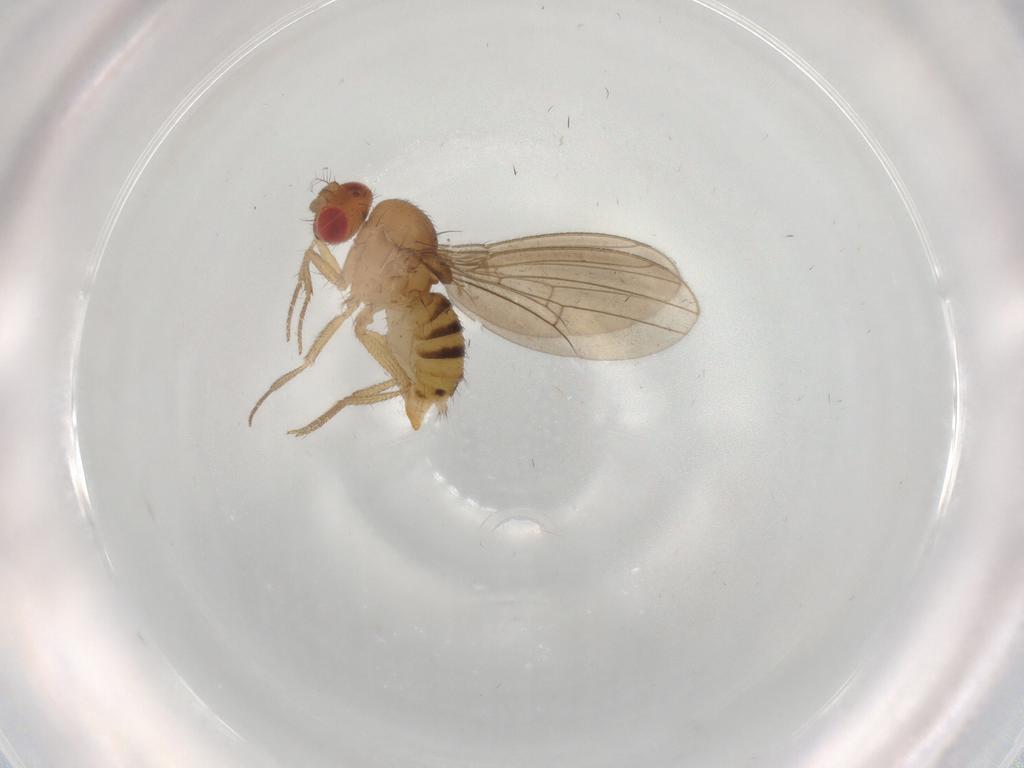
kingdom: Animalia
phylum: Arthropoda
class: Insecta
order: Diptera
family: Drosophilidae
